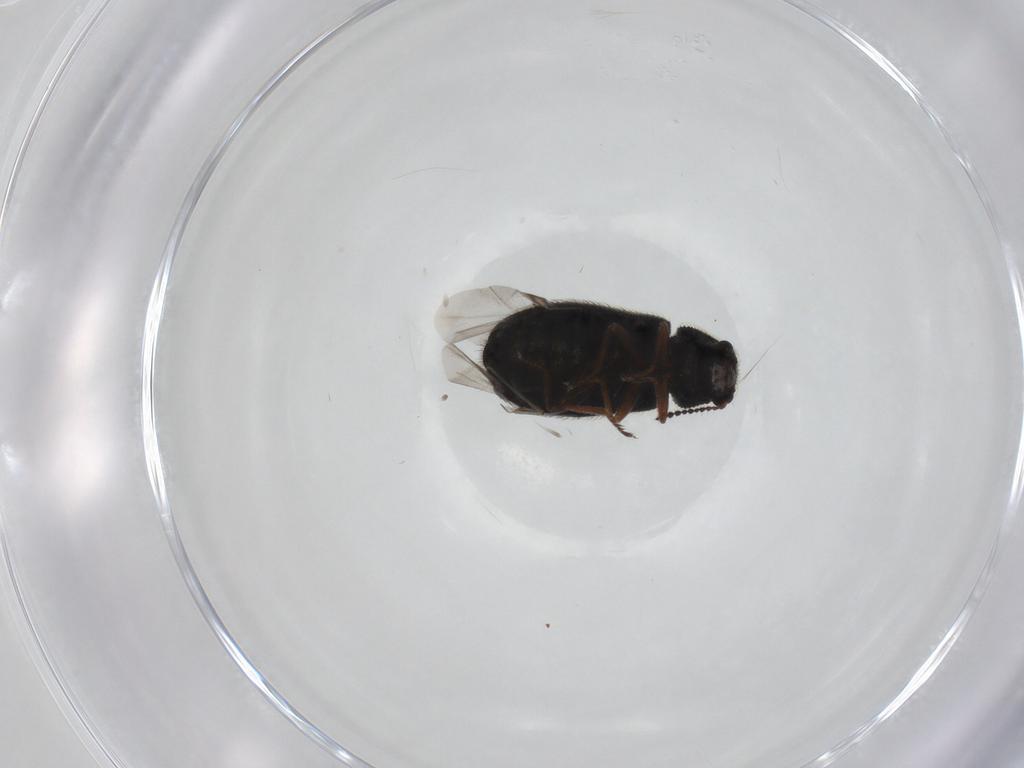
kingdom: Animalia
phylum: Arthropoda
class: Insecta
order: Coleoptera
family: Melyridae
